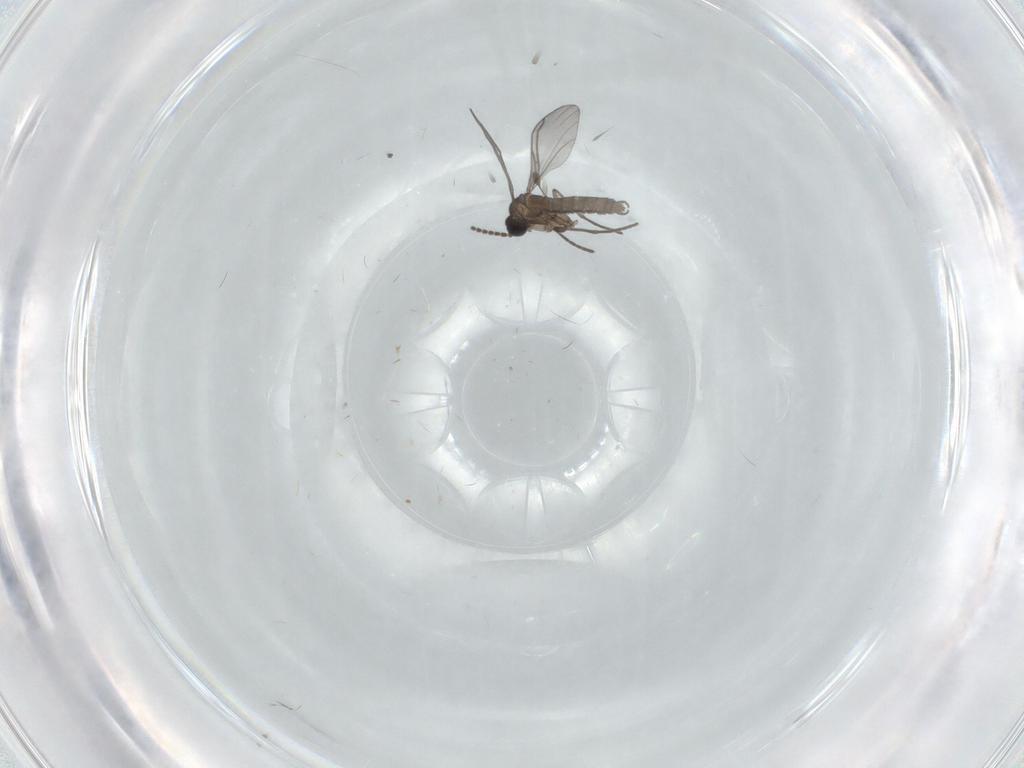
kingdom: Animalia
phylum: Arthropoda
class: Insecta
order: Diptera
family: Sciaridae
